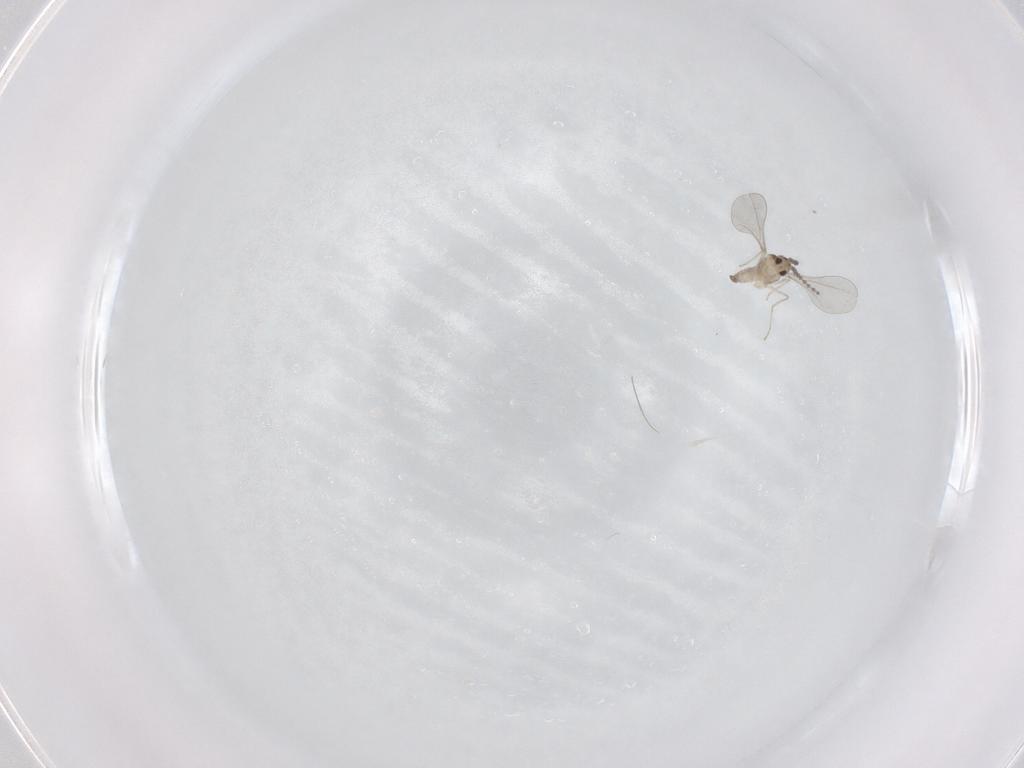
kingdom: Animalia
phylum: Arthropoda
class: Insecta
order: Diptera
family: Cecidomyiidae
